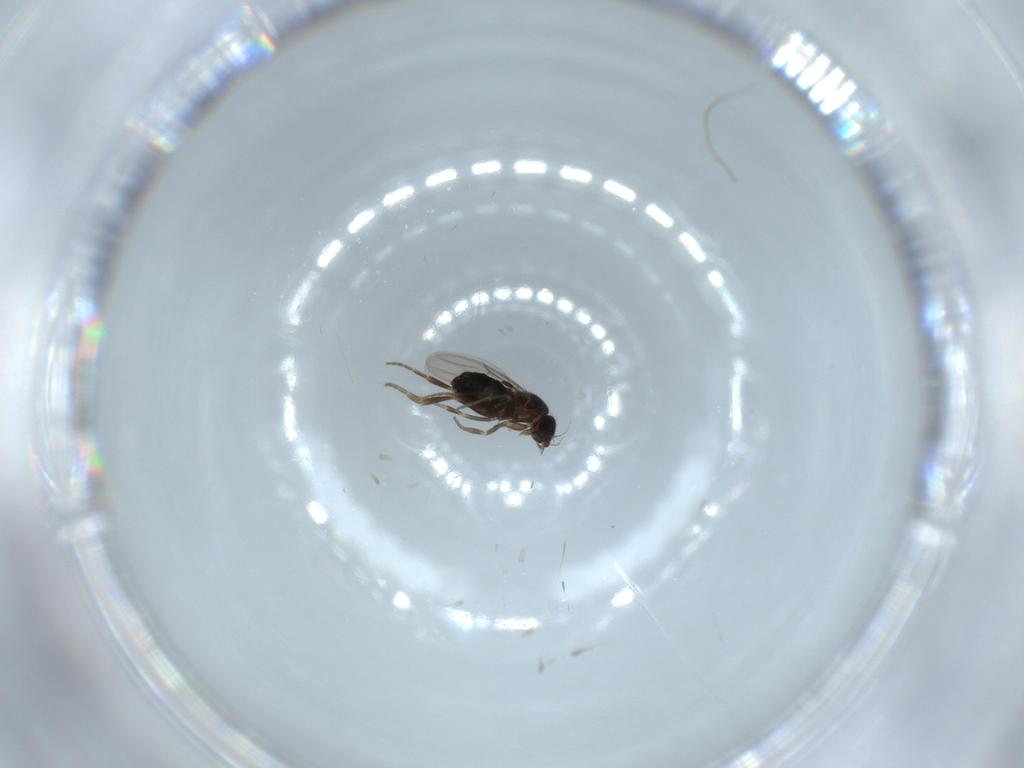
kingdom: Animalia
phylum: Arthropoda
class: Insecta
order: Diptera
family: Phoridae
